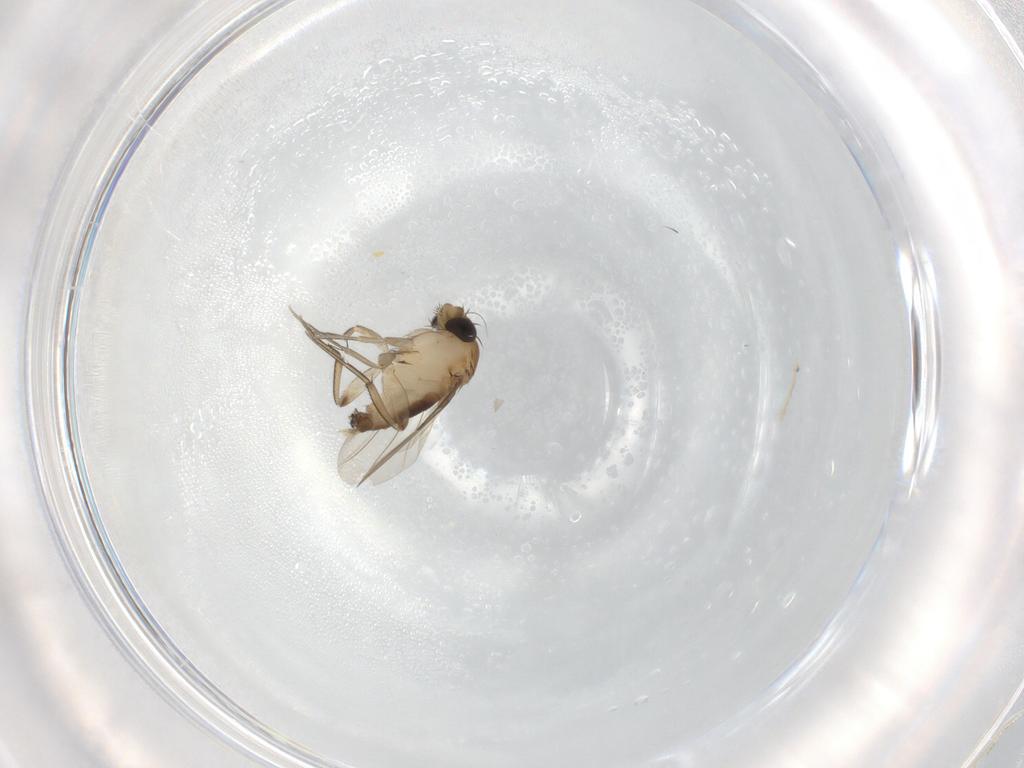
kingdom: Animalia
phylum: Arthropoda
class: Insecta
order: Diptera
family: Phoridae
